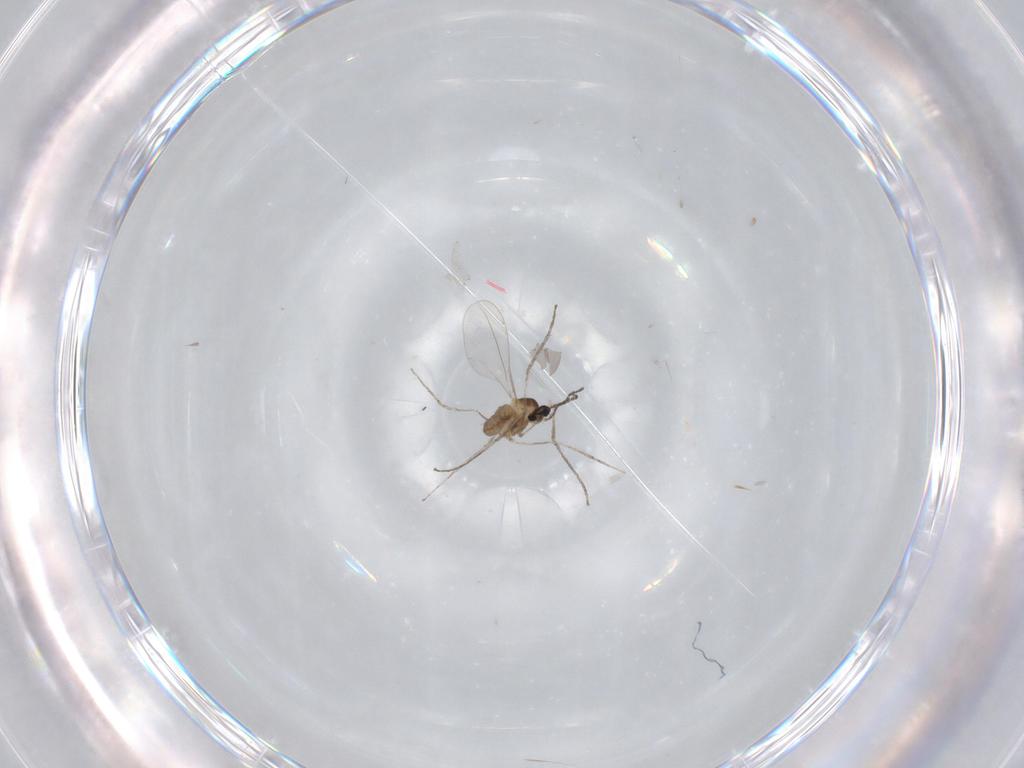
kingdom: Animalia
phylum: Arthropoda
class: Insecta
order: Diptera
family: Cecidomyiidae
